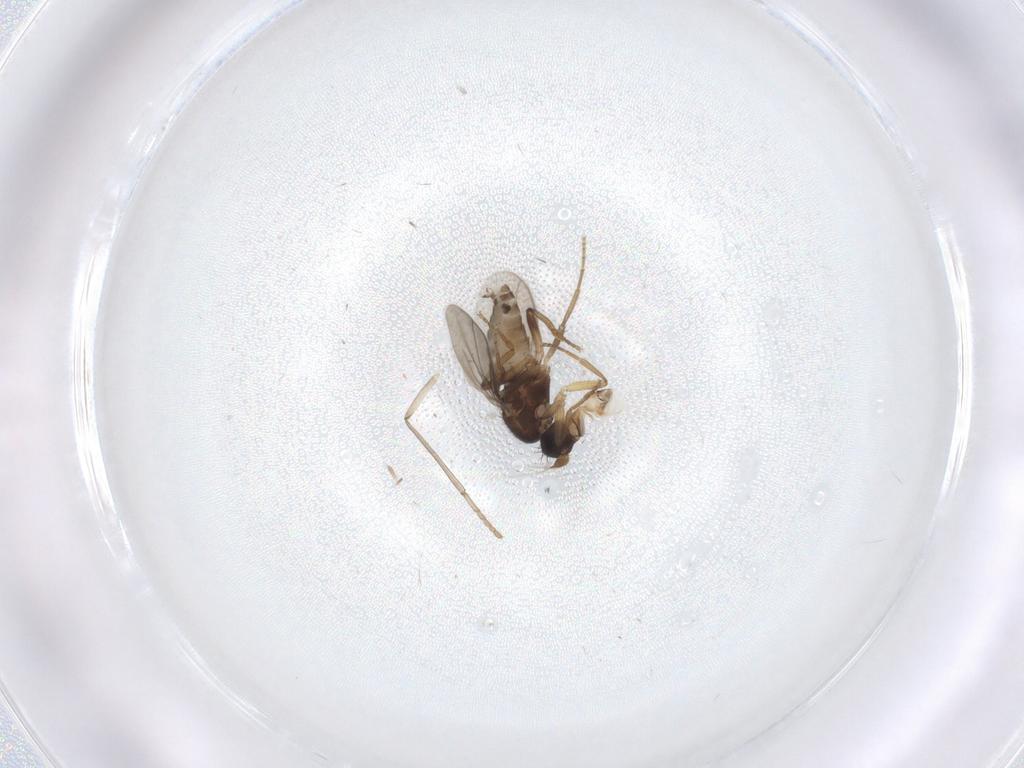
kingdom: Animalia
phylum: Arthropoda
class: Insecta
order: Diptera
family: Sphaeroceridae
